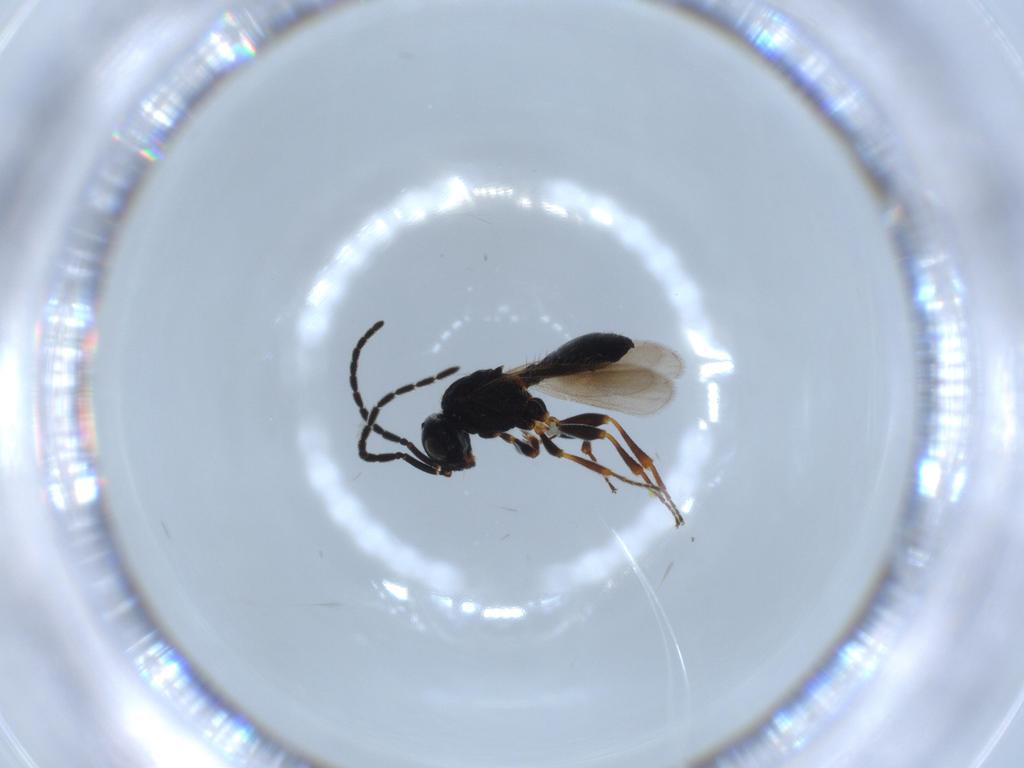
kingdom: Animalia
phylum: Arthropoda
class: Insecta
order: Hymenoptera
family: Scelionidae
